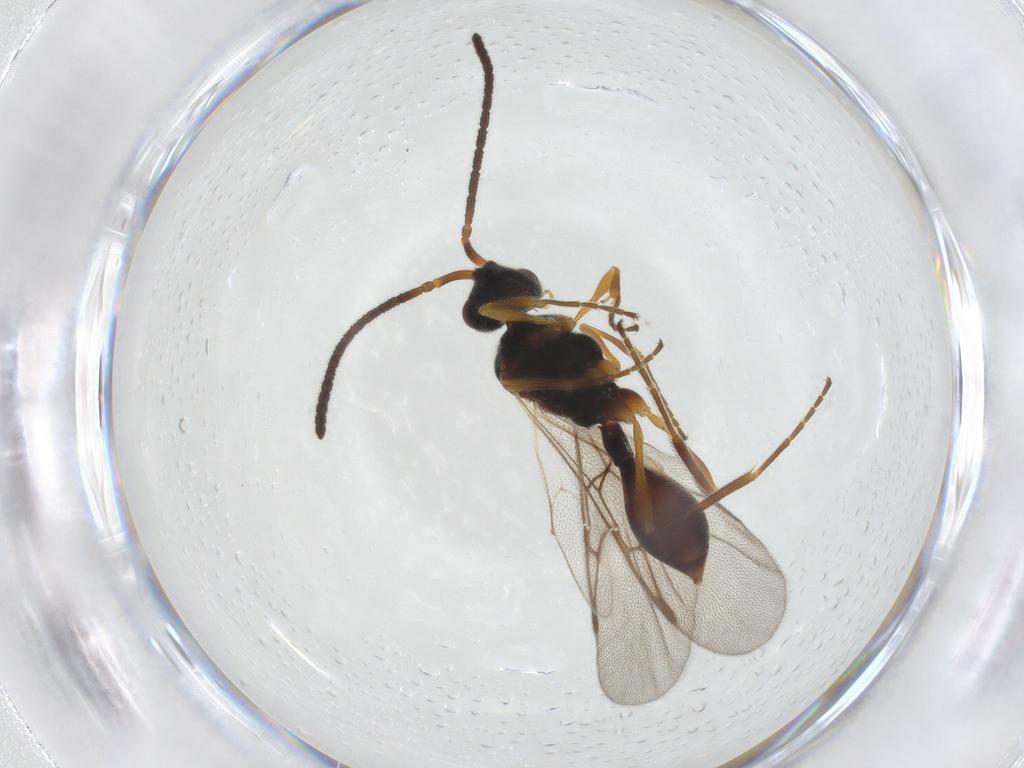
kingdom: Animalia
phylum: Arthropoda
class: Insecta
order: Hymenoptera
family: Diapriidae
